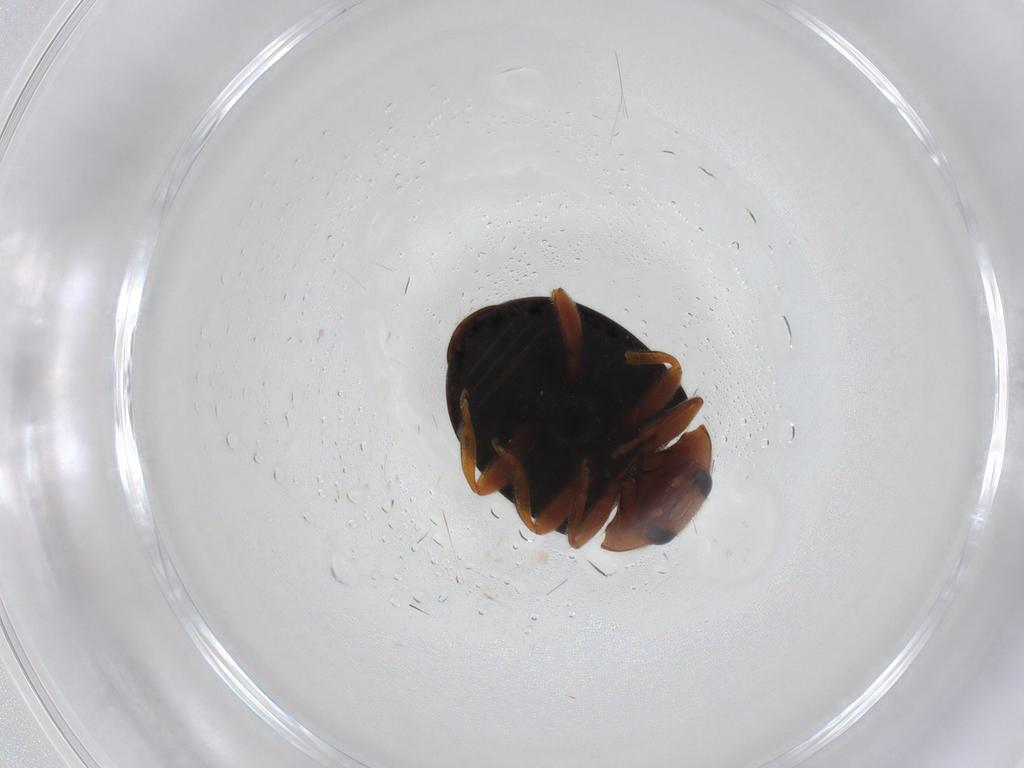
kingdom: Animalia
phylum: Arthropoda
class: Insecta
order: Coleoptera
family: Coccinellidae
